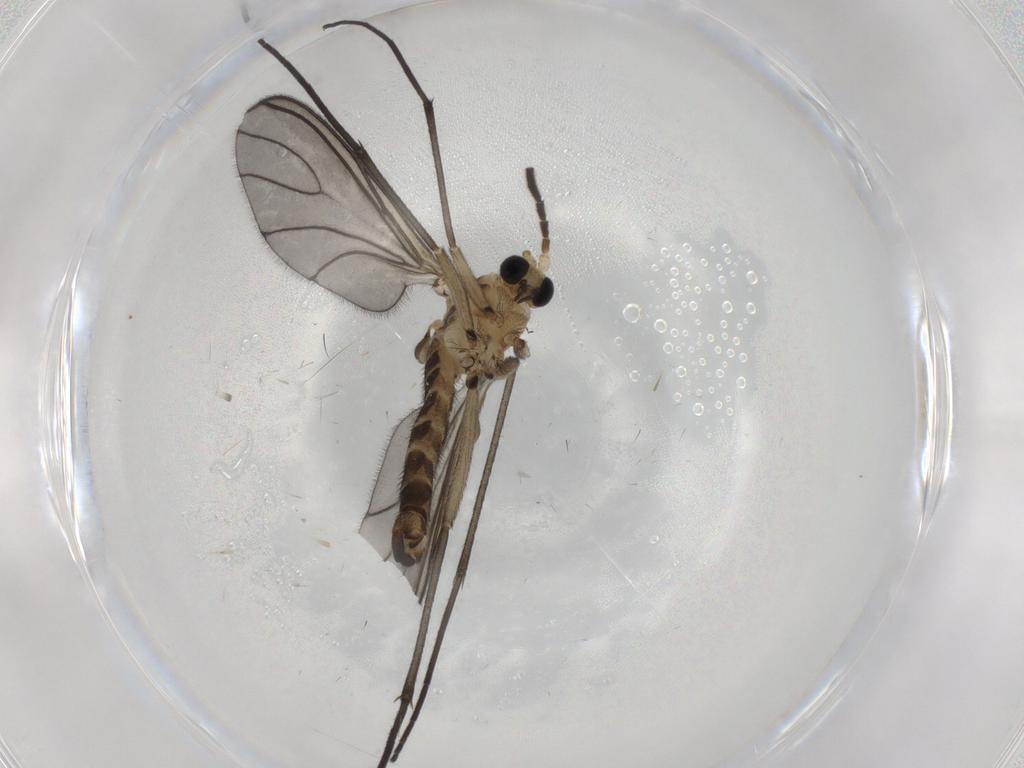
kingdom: Animalia
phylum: Arthropoda
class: Insecta
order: Diptera
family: Sciaridae
